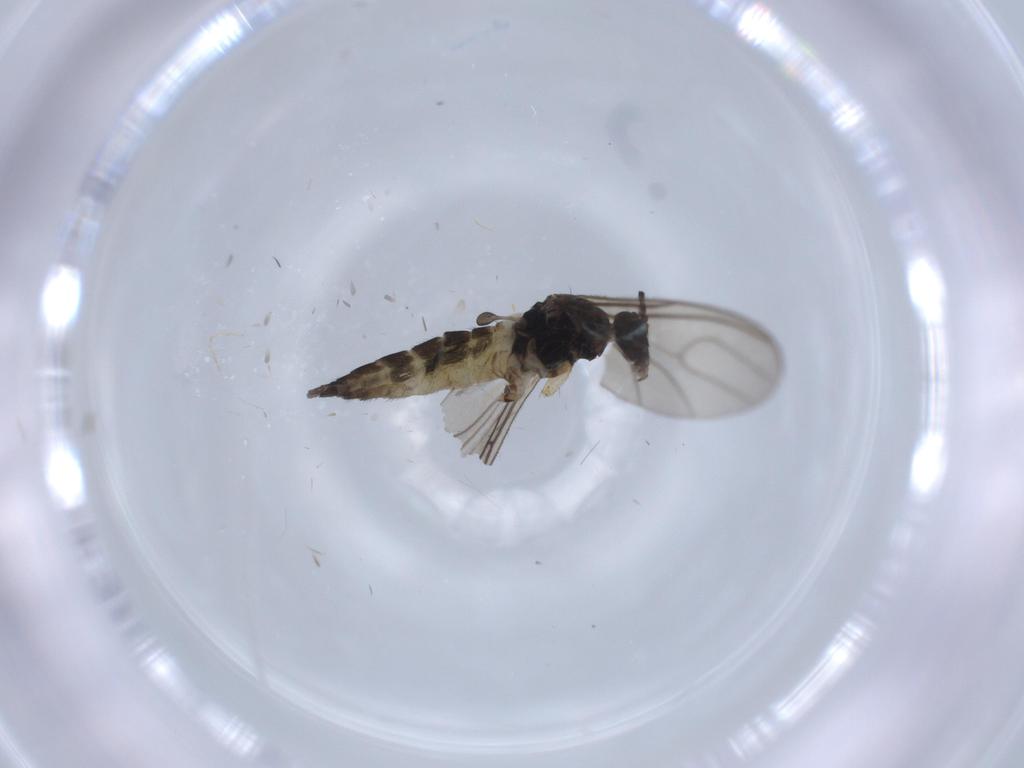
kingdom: Animalia
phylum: Arthropoda
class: Insecta
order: Diptera
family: Sciaridae
